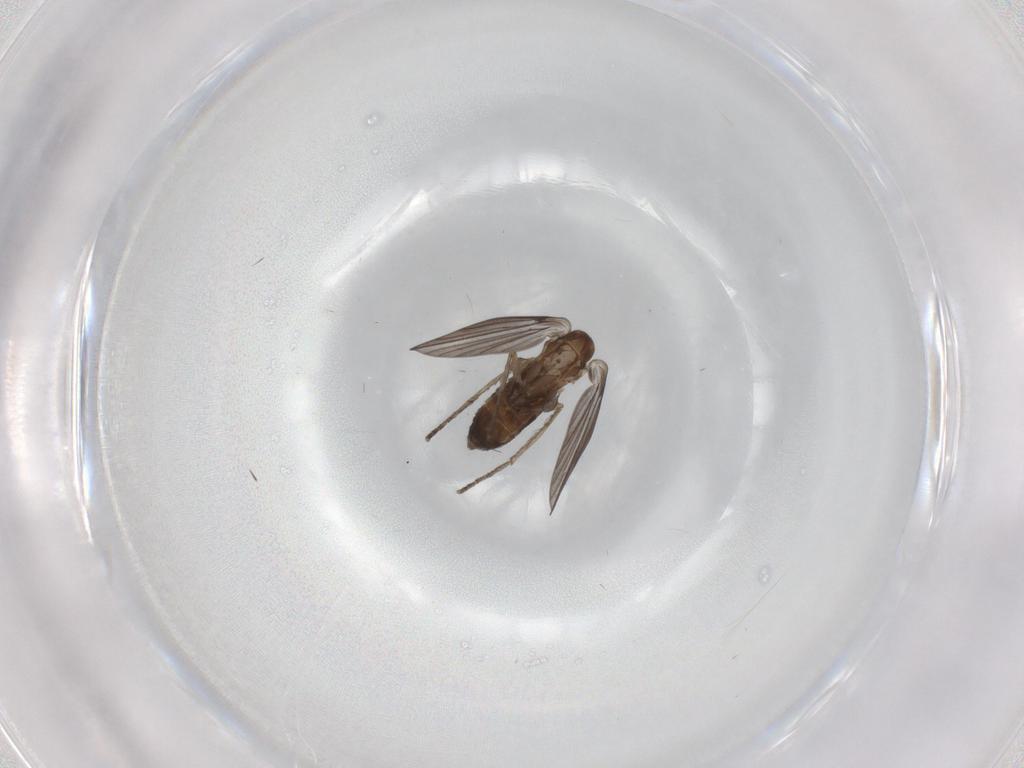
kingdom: Animalia
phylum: Arthropoda
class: Insecta
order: Diptera
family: Psychodidae
